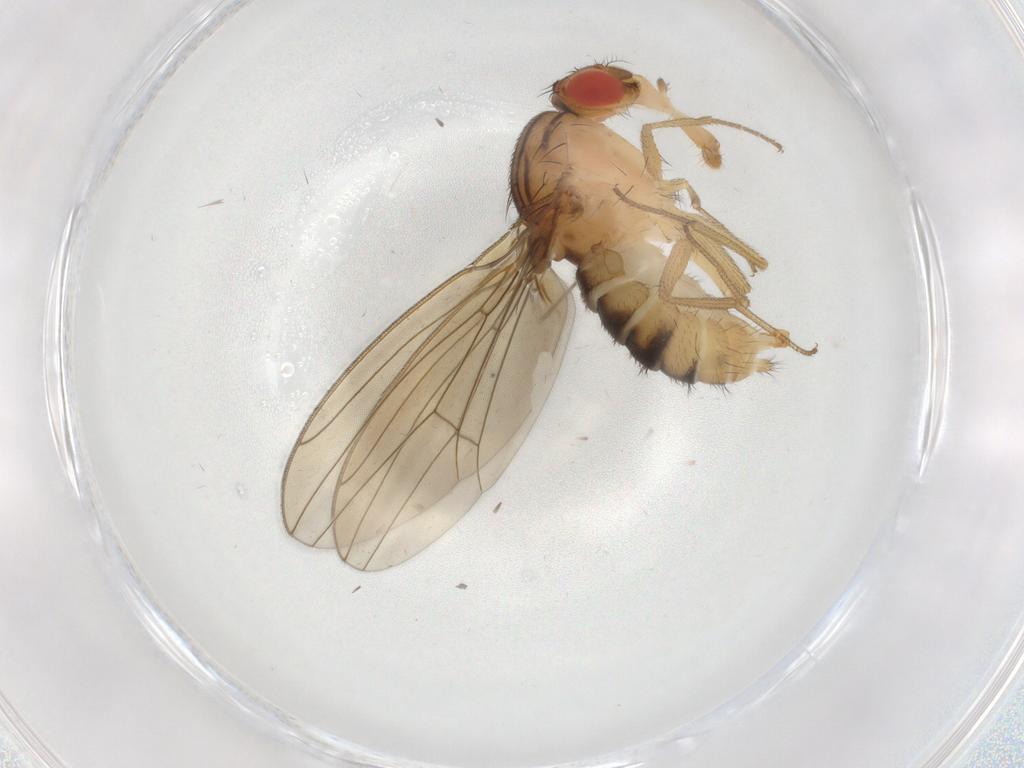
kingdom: Animalia
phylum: Arthropoda
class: Insecta
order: Diptera
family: Drosophilidae
